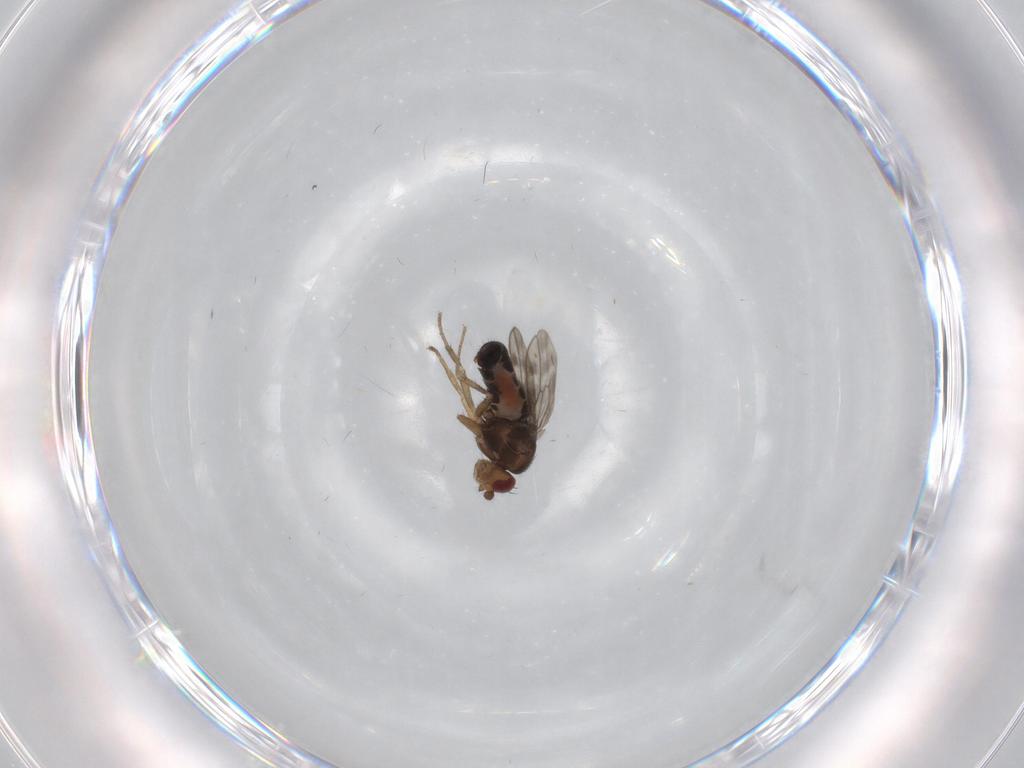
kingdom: Animalia
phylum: Arthropoda
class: Insecta
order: Diptera
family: Sphaeroceridae
